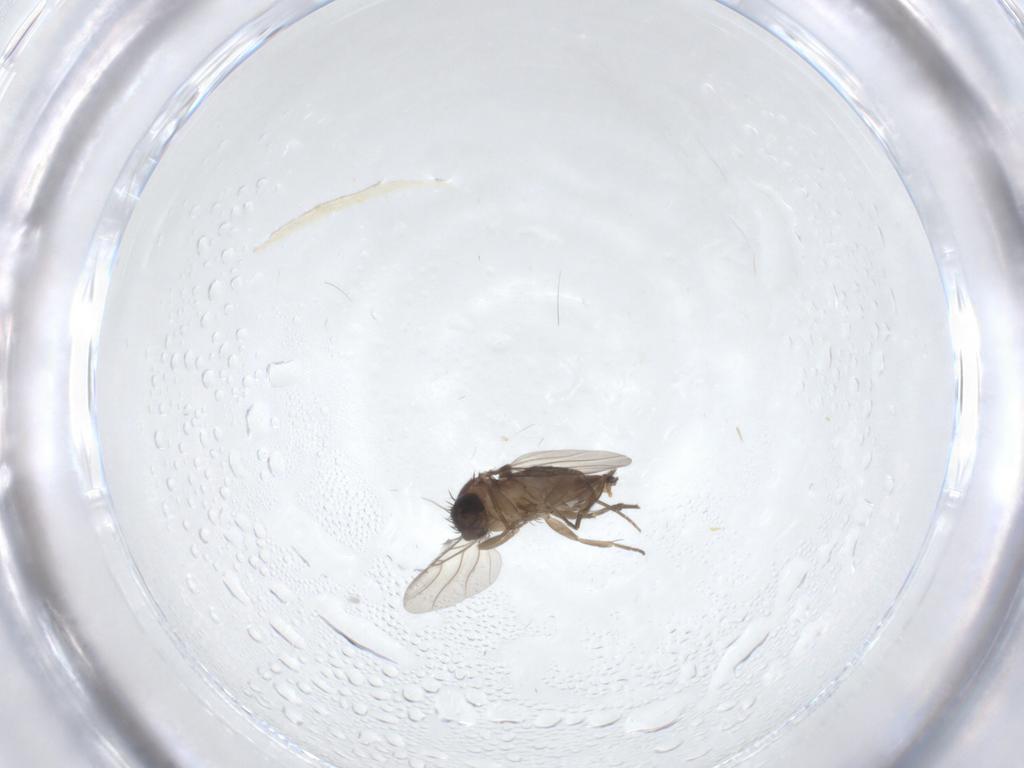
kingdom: Animalia
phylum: Arthropoda
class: Insecta
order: Diptera
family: Phoridae
